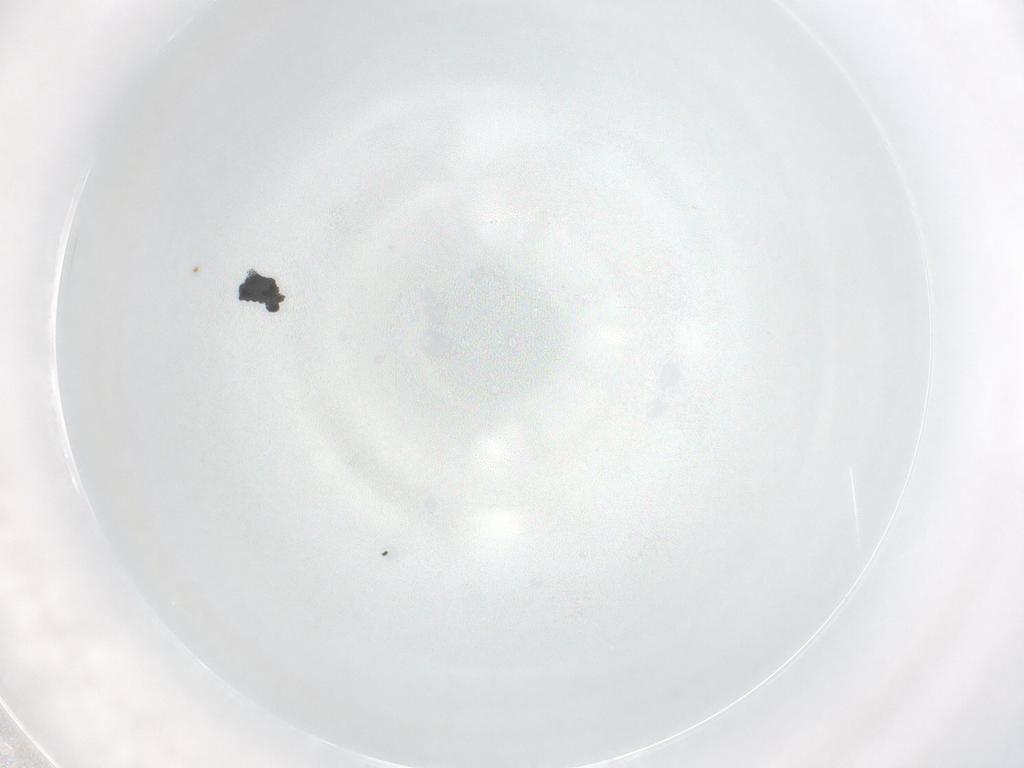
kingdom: Animalia
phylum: Arthropoda
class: Insecta
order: Hymenoptera
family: Bethylidae
